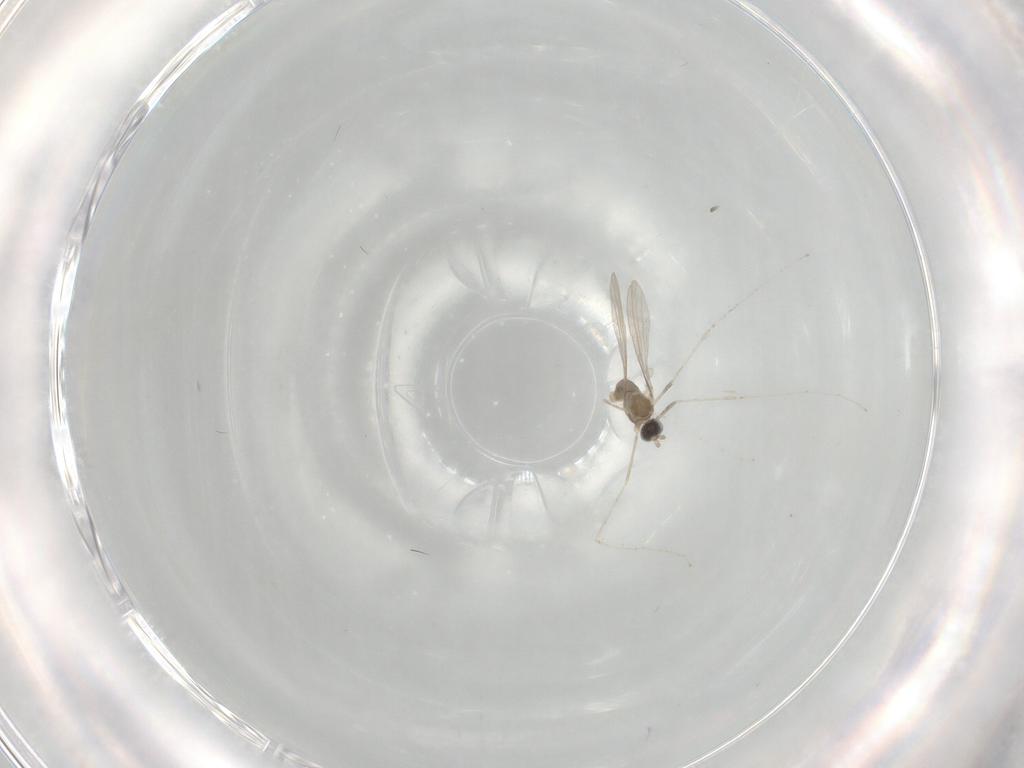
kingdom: Animalia
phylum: Arthropoda
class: Insecta
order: Diptera
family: Cecidomyiidae
